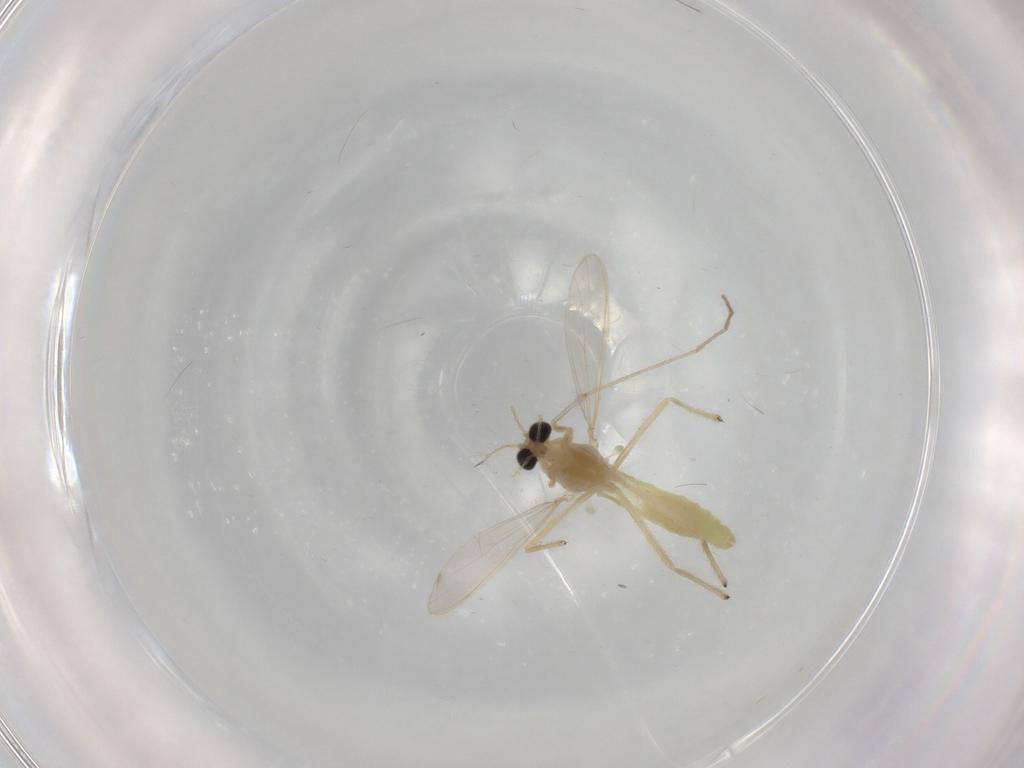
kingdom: Animalia
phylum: Arthropoda
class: Insecta
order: Diptera
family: Chironomidae
